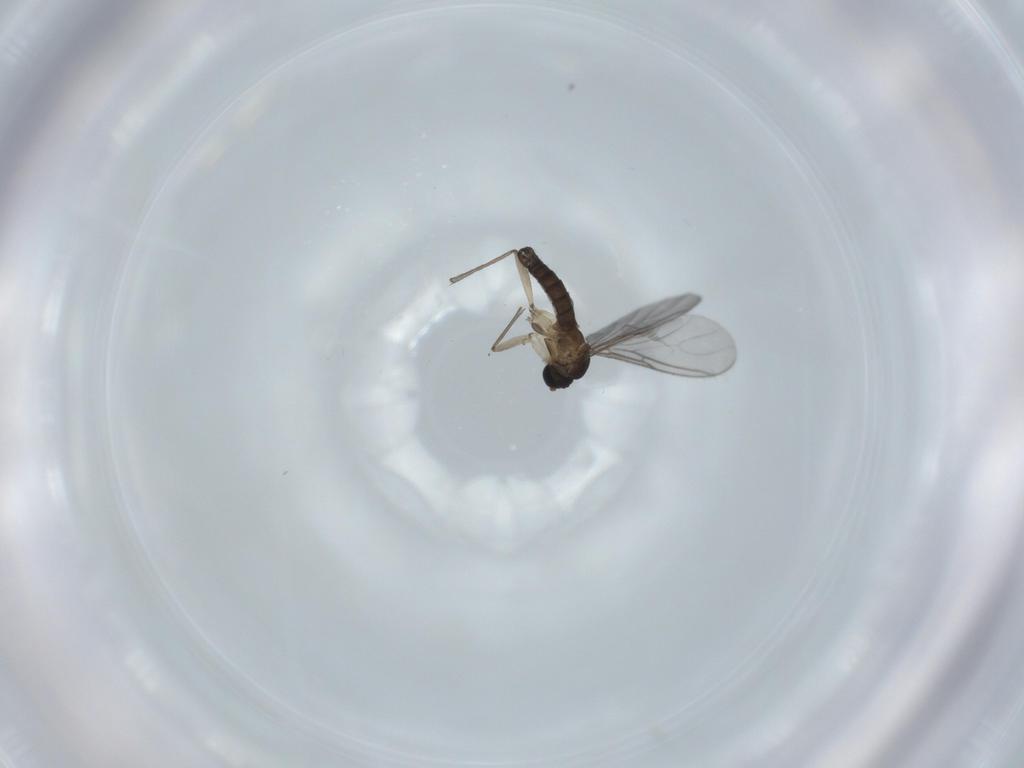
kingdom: Animalia
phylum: Arthropoda
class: Insecta
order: Diptera
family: Sciaridae
